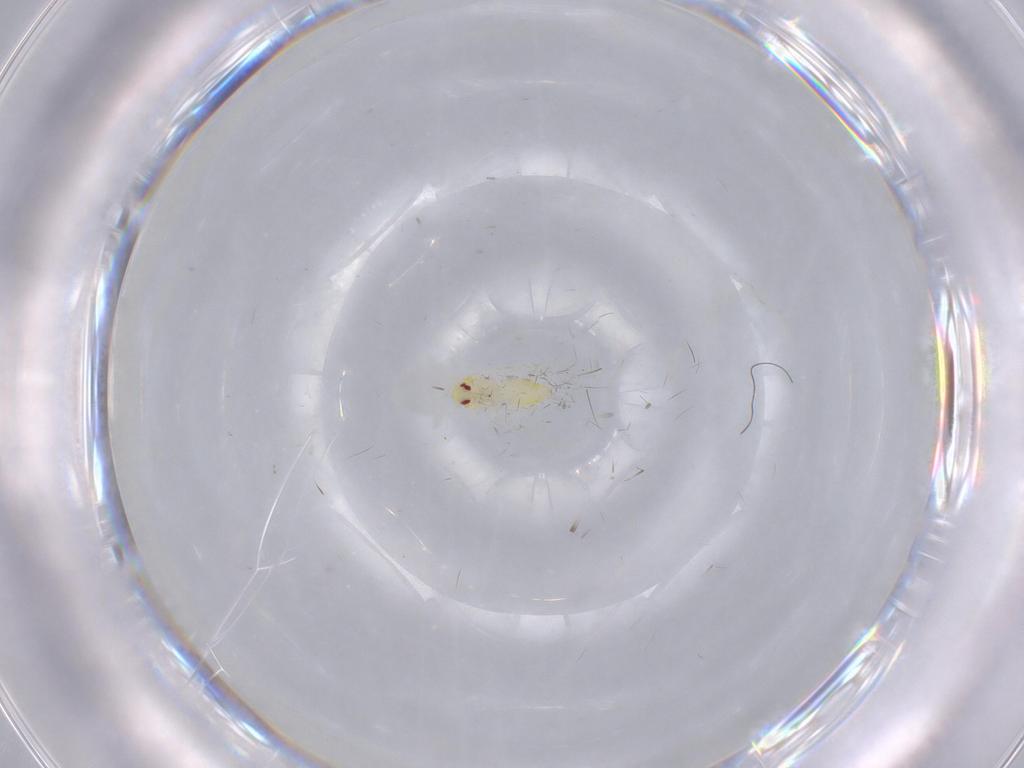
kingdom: Animalia
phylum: Arthropoda
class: Insecta
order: Hemiptera
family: Aleyrodidae
